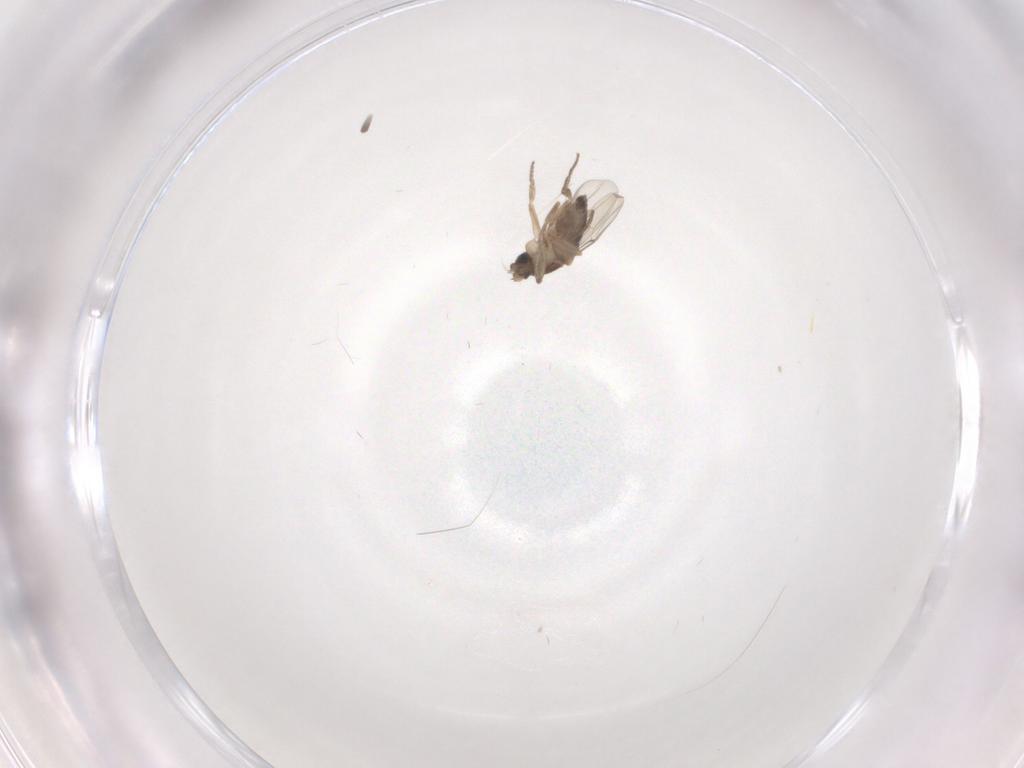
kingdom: Animalia
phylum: Arthropoda
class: Insecta
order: Diptera
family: Phoridae
